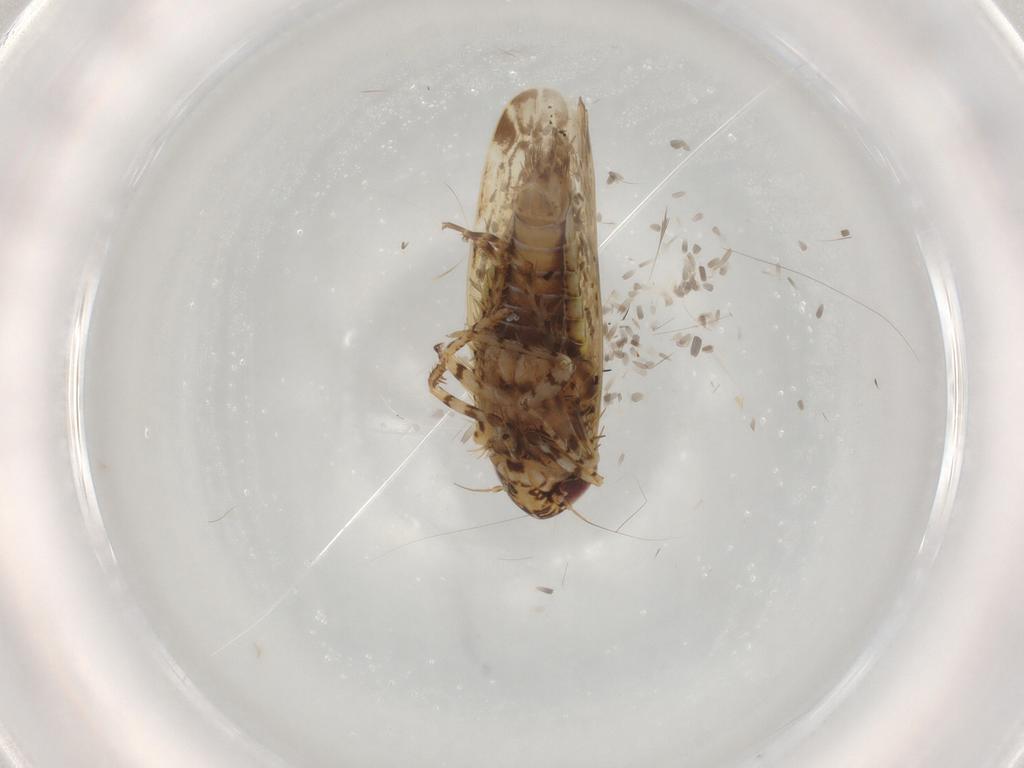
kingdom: Animalia
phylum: Arthropoda
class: Insecta
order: Hemiptera
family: Cicadellidae
